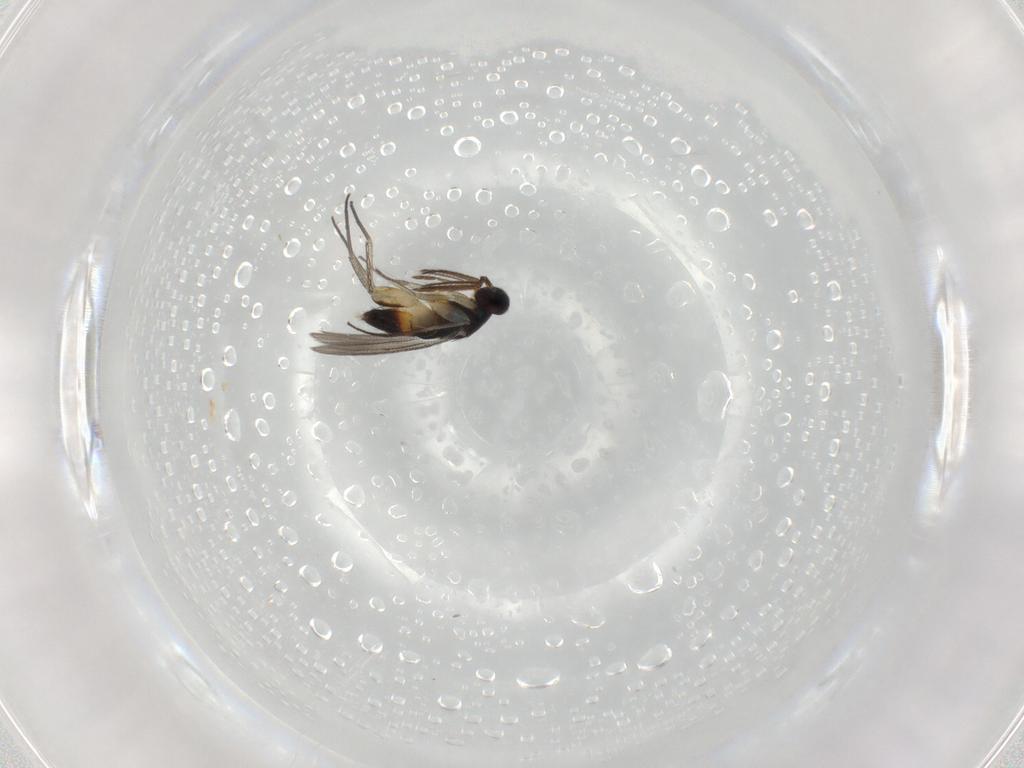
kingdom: Animalia
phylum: Arthropoda
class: Insecta
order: Hymenoptera
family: Eulophidae
